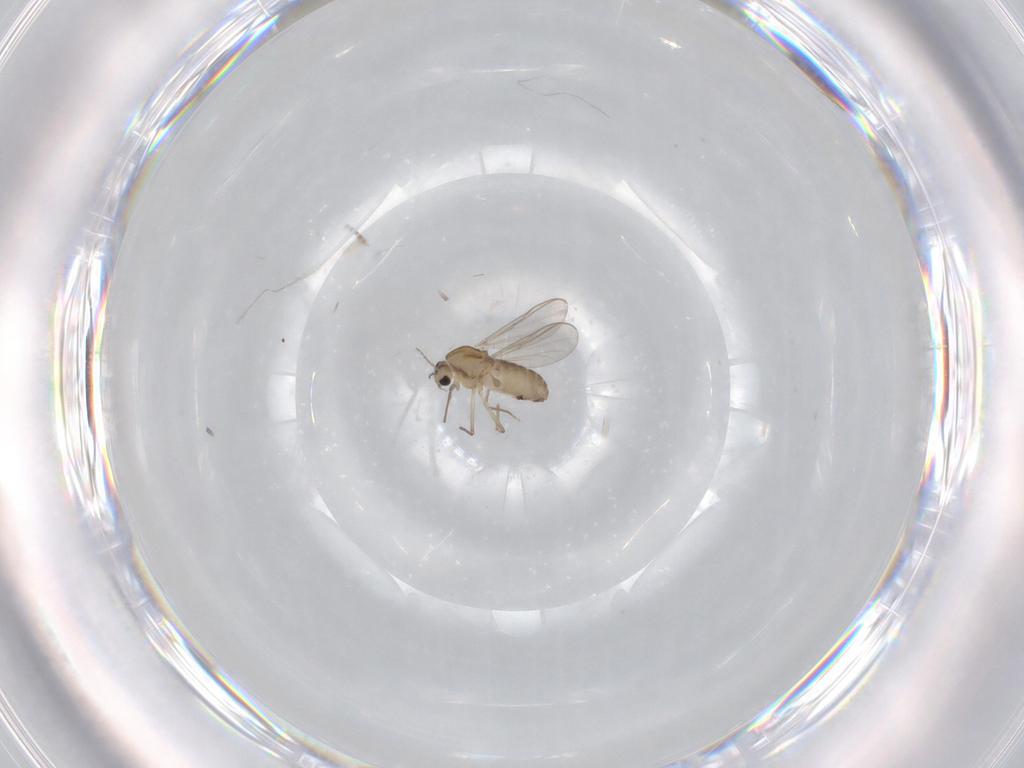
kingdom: Animalia
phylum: Arthropoda
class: Insecta
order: Diptera
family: Chironomidae
